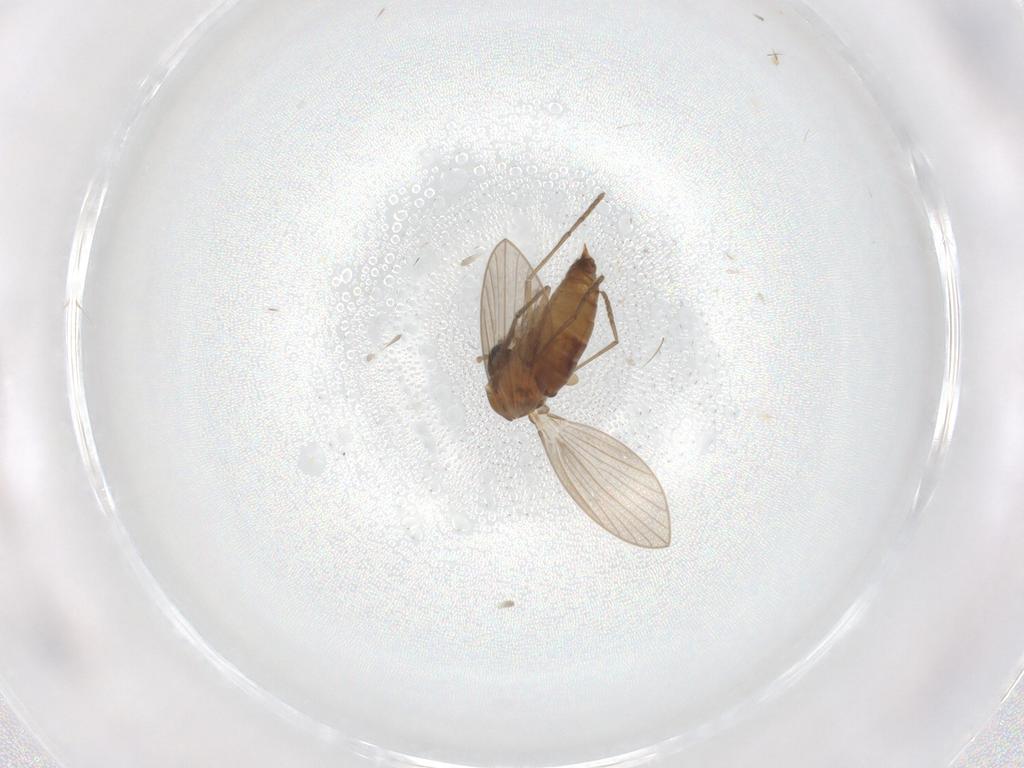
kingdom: Animalia
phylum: Arthropoda
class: Insecta
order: Diptera
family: Psychodidae
